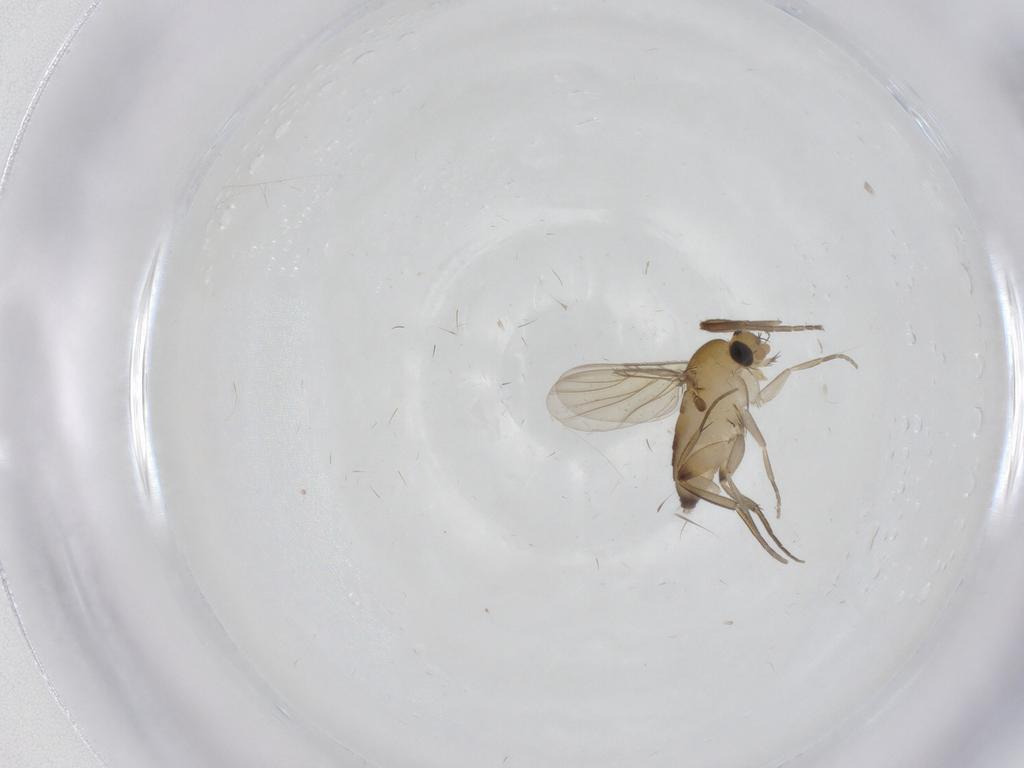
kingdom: Animalia
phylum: Arthropoda
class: Insecta
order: Diptera
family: Phoridae
